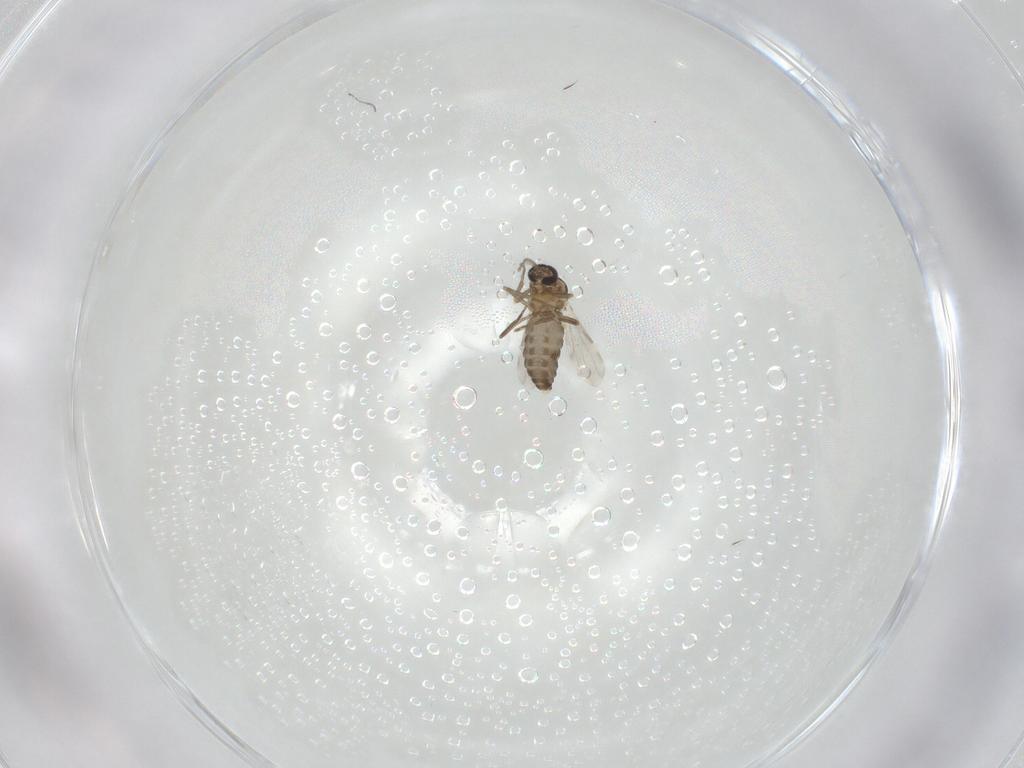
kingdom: Animalia
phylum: Arthropoda
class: Insecta
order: Diptera
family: Ceratopogonidae
